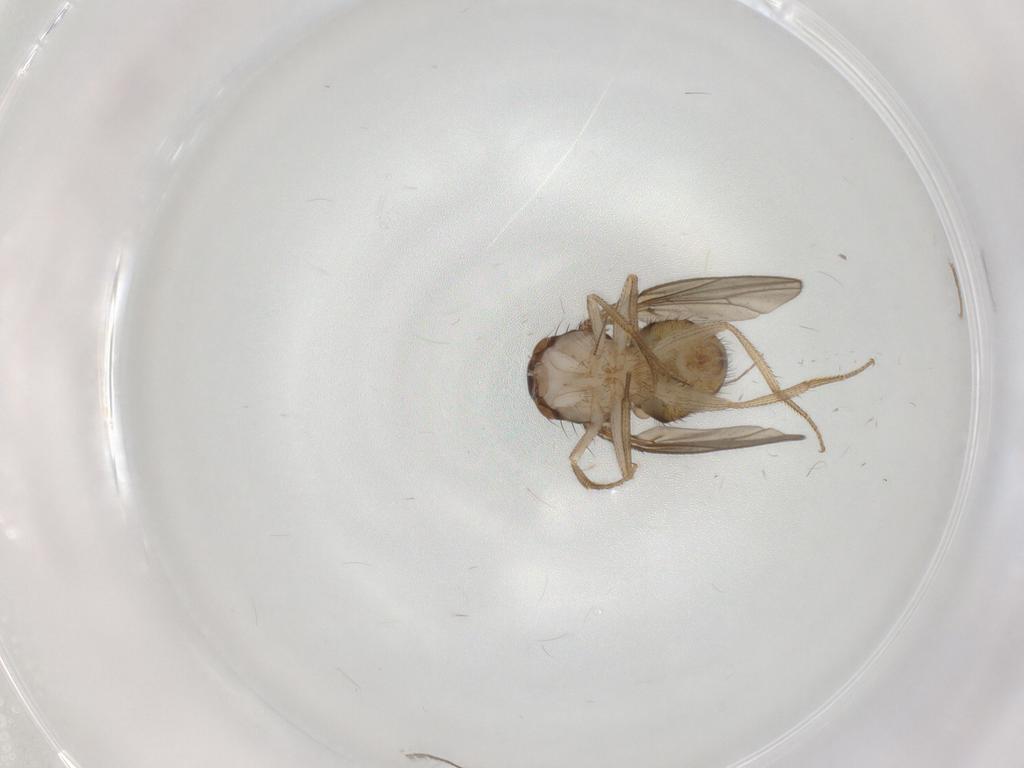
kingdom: Animalia
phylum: Arthropoda
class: Insecta
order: Diptera
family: Drosophilidae
